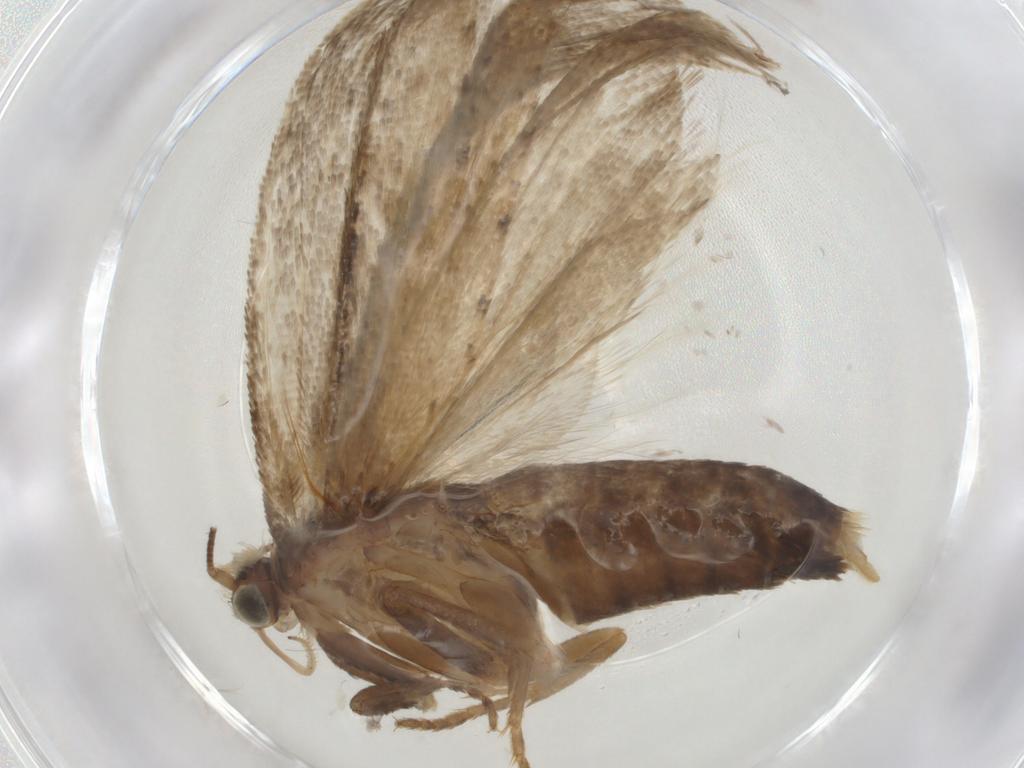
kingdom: Animalia
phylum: Arthropoda
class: Insecta
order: Lepidoptera
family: Tortricidae
